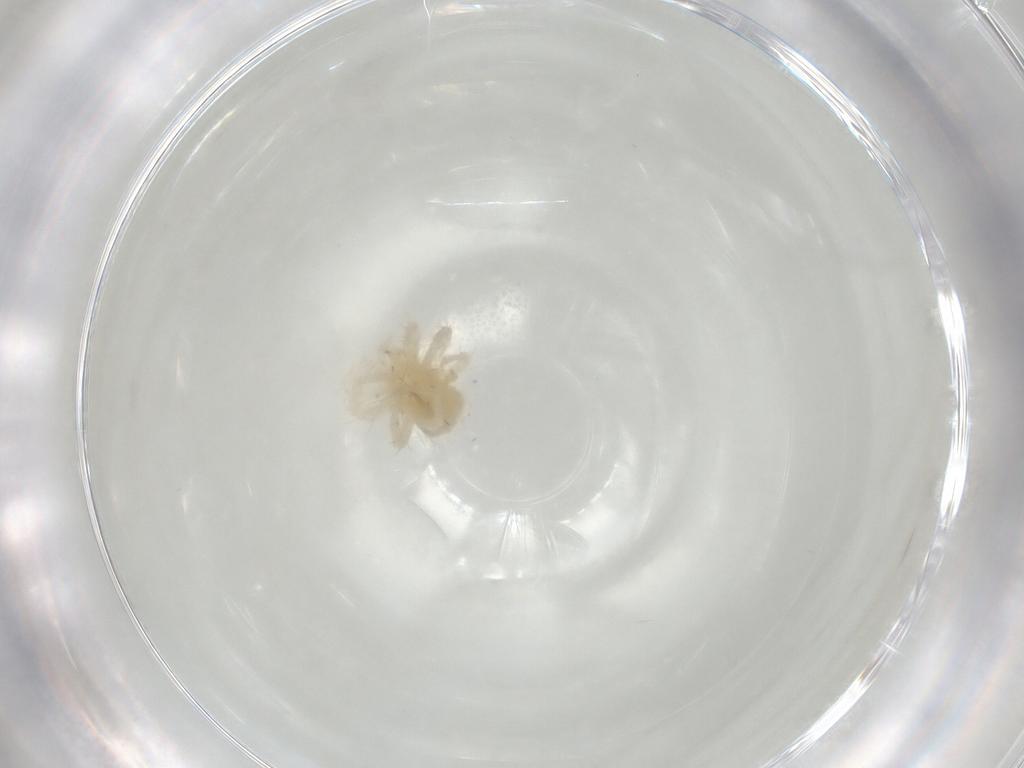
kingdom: Animalia
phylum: Arthropoda
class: Arachnida
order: Trombidiformes
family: Anystidae
